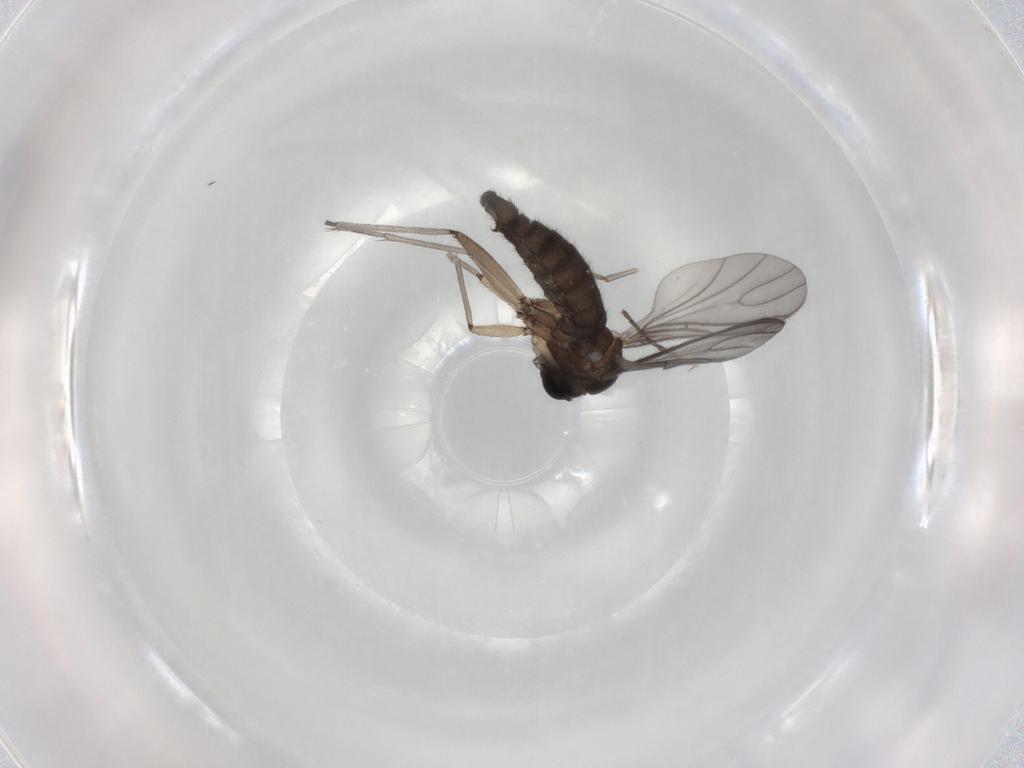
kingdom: Animalia
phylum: Arthropoda
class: Insecta
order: Diptera
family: Sciaridae
